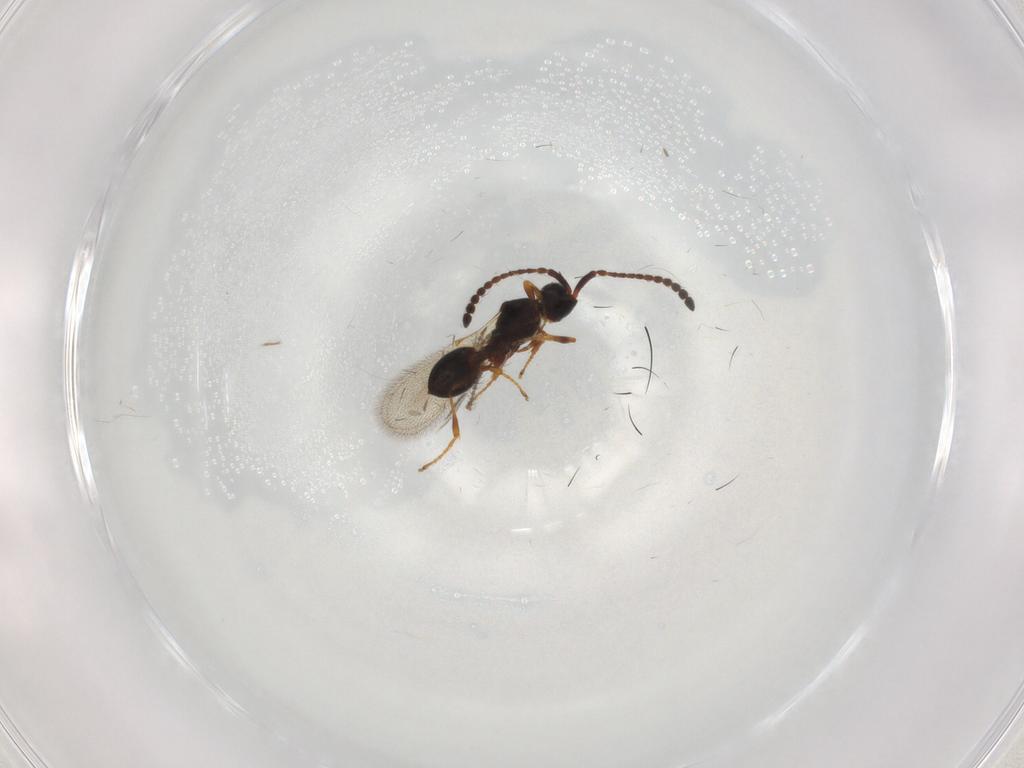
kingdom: Animalia
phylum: Arthropoda
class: Insecta
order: Hymenoptera
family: Diapriidae
